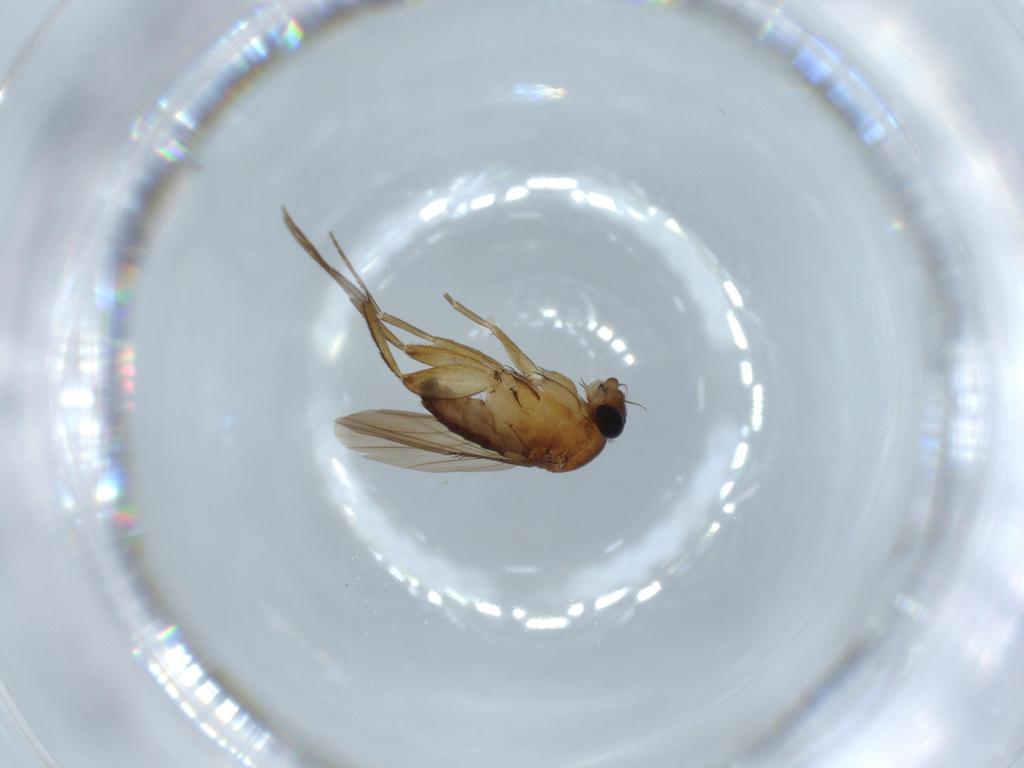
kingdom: Animalia
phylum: Arthropoda
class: Insecta
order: Diptera
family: Phoridae
